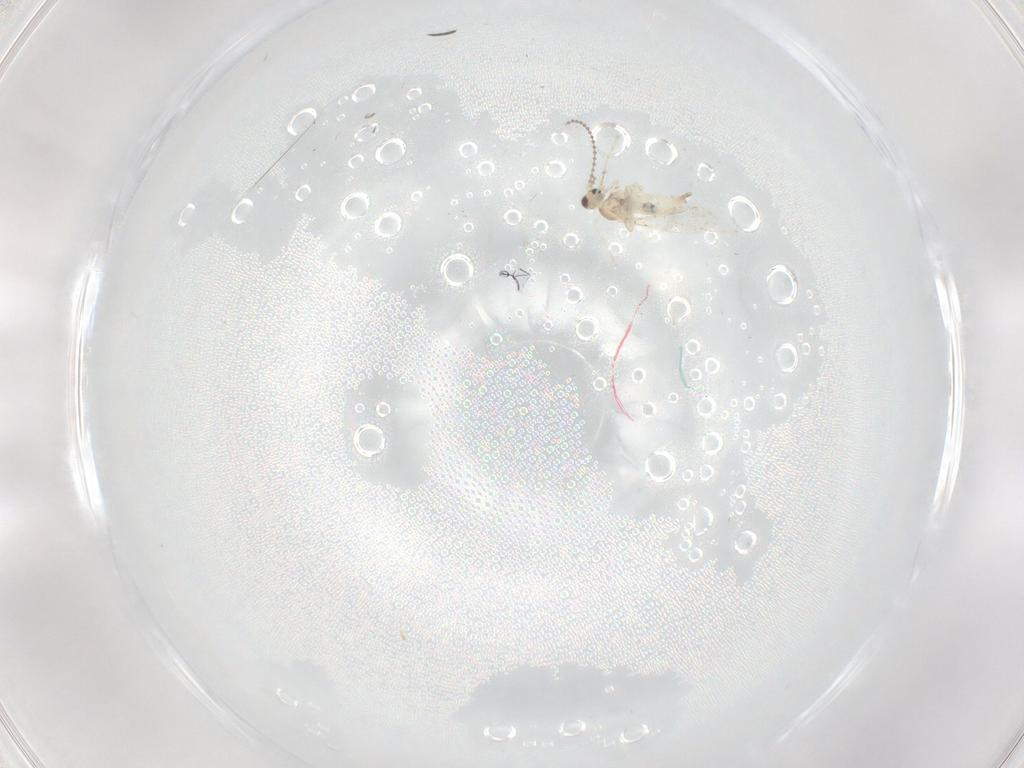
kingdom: Animalia
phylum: Arthropoda
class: Insecta
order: Diptera
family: Cecidomyiidae
